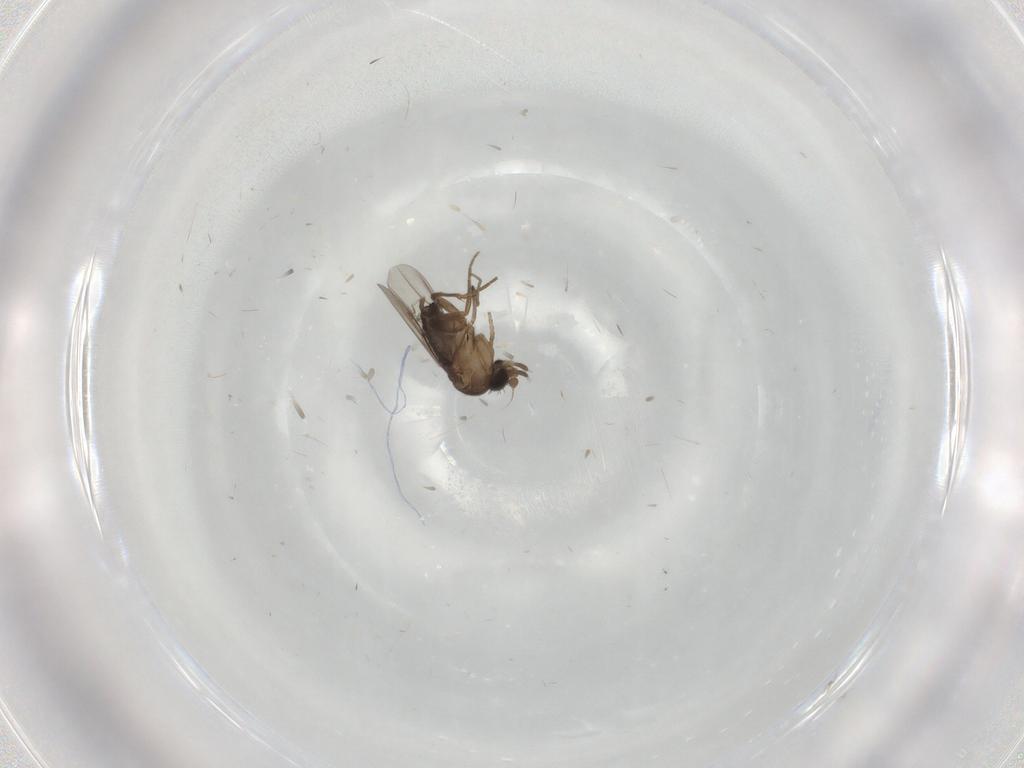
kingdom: Animalia
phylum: Arthropoda
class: Insecta
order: Diptera
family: Phoridae
